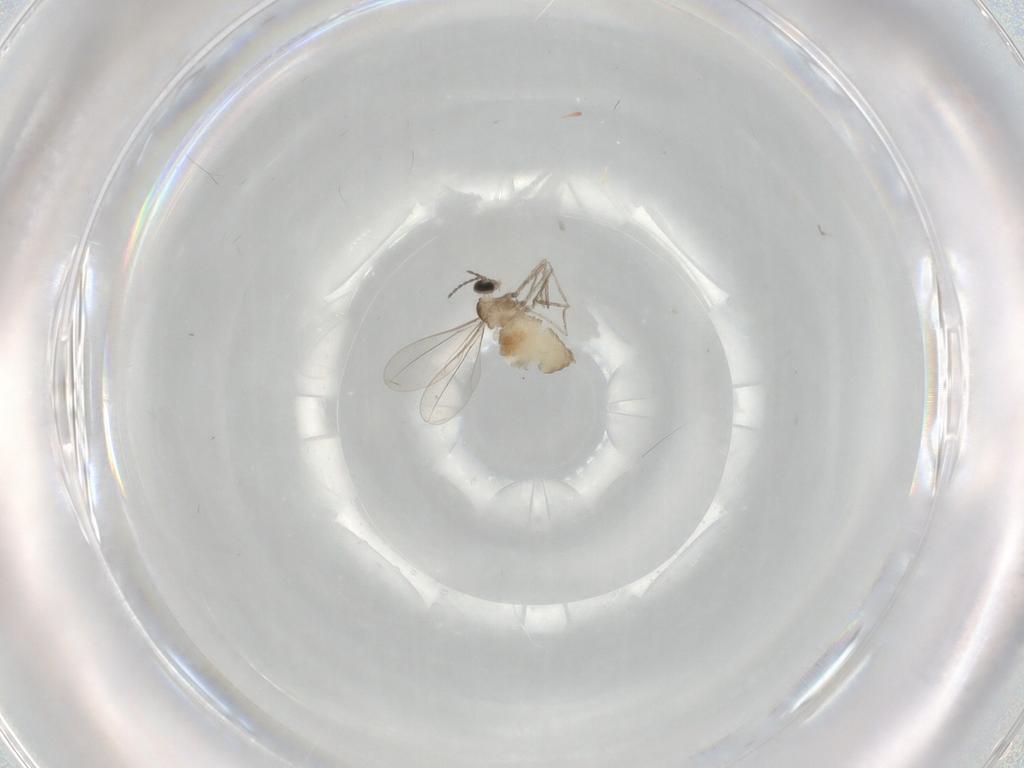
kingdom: Animalia
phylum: Arthropoda
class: Insecta
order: Diptera
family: Cecidomyiidae
